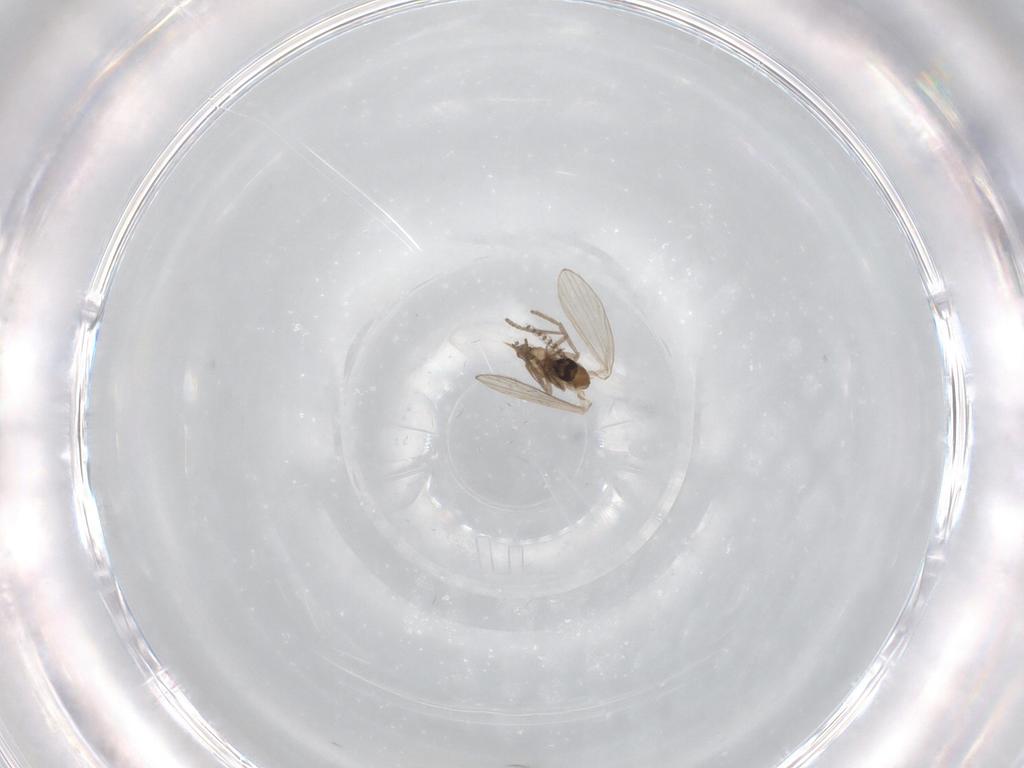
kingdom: Animalia
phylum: Arthropoda
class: Insecta
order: Diptera
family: Psychodidae
